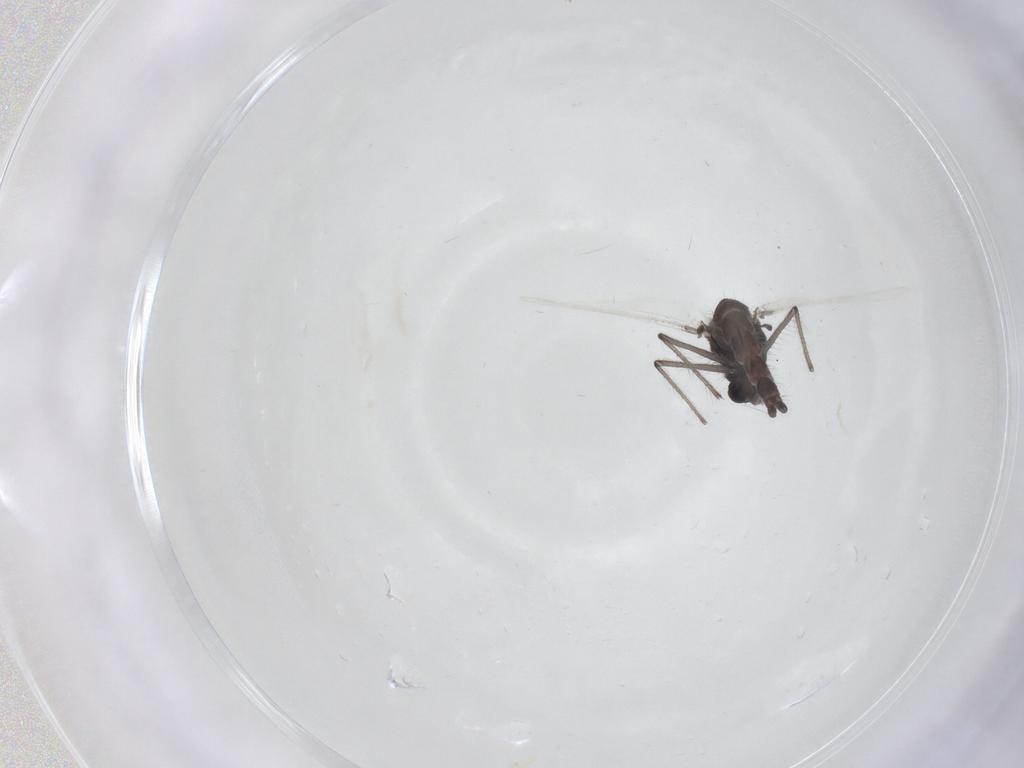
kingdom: Animalia
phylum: Arthropoda
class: Insecta
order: Diptera
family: Chironomidae
